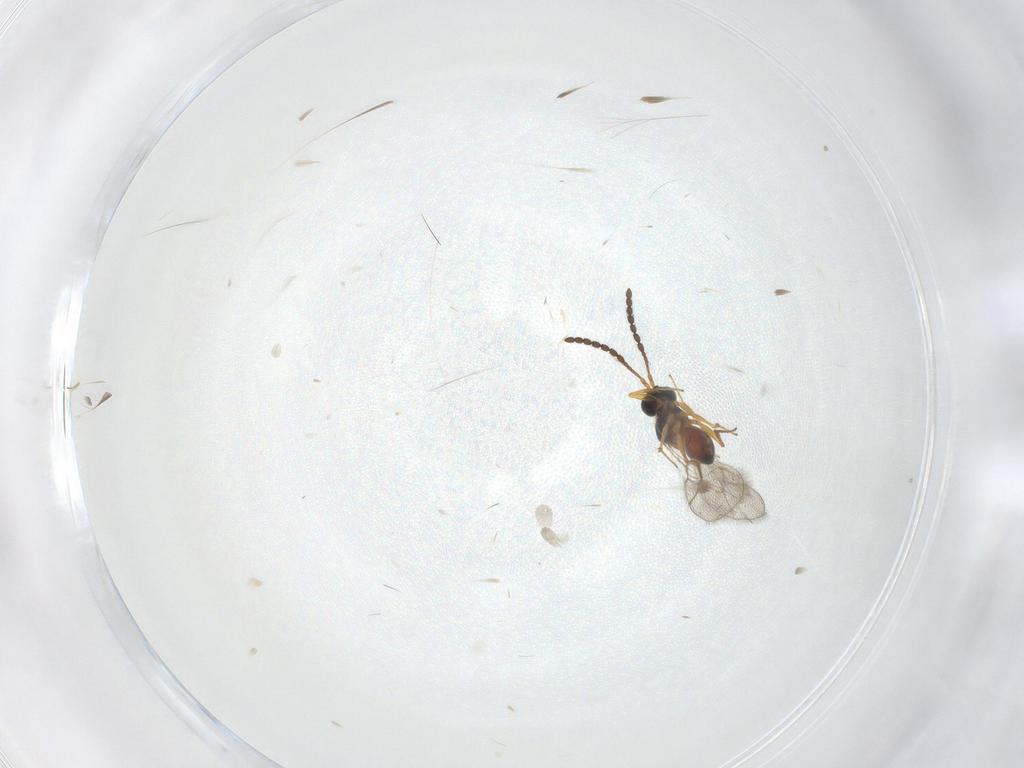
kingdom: Animalia
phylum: Arthropoda
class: Insecta
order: Hymenoptera
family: Figitidae
